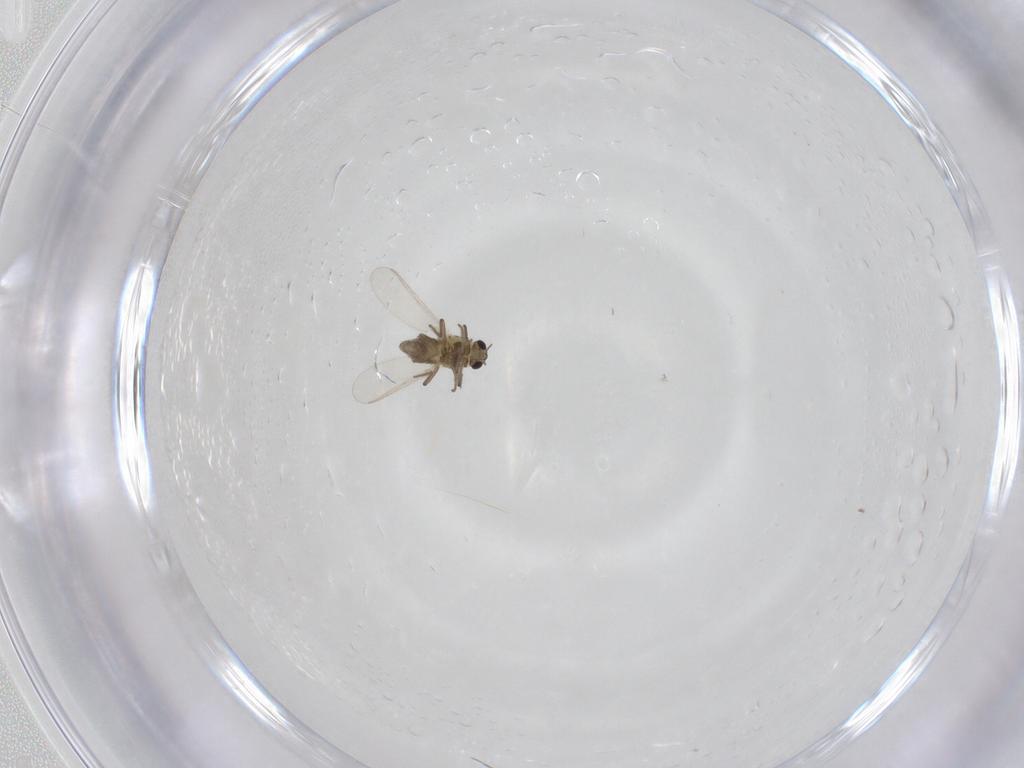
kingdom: Animalia
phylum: Arthropoda
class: Insecta
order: Diptera
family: Chironomidae
